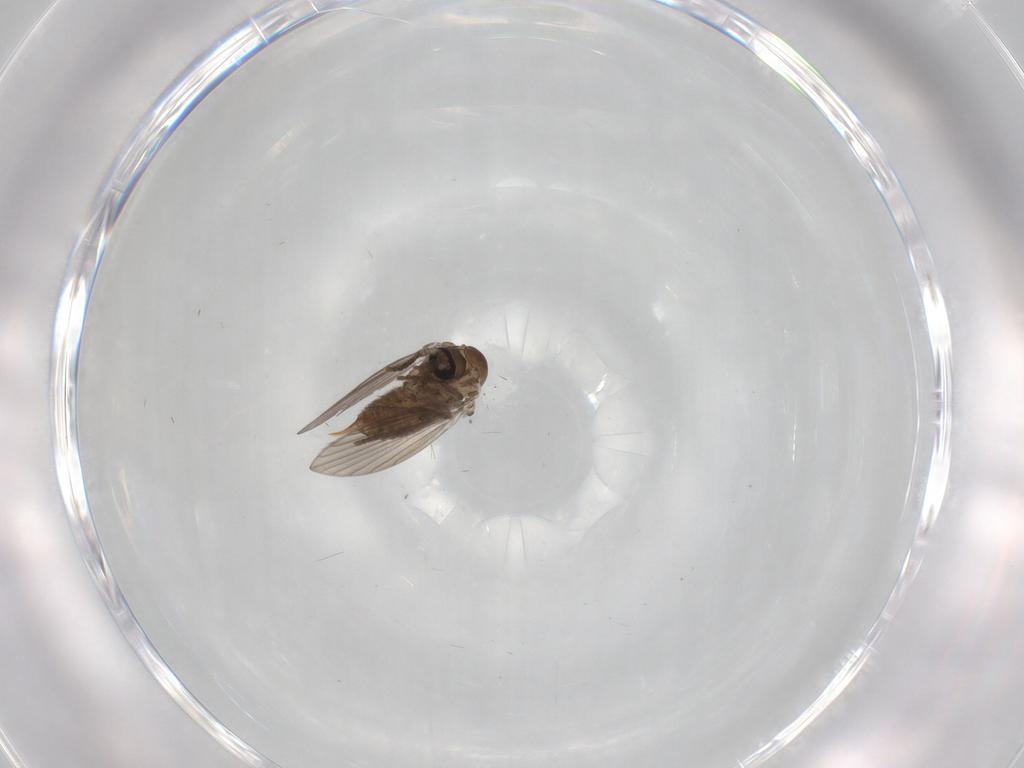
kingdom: Animalia
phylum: Arthropoda
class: Insecta
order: Diptera
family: Psychodidae
